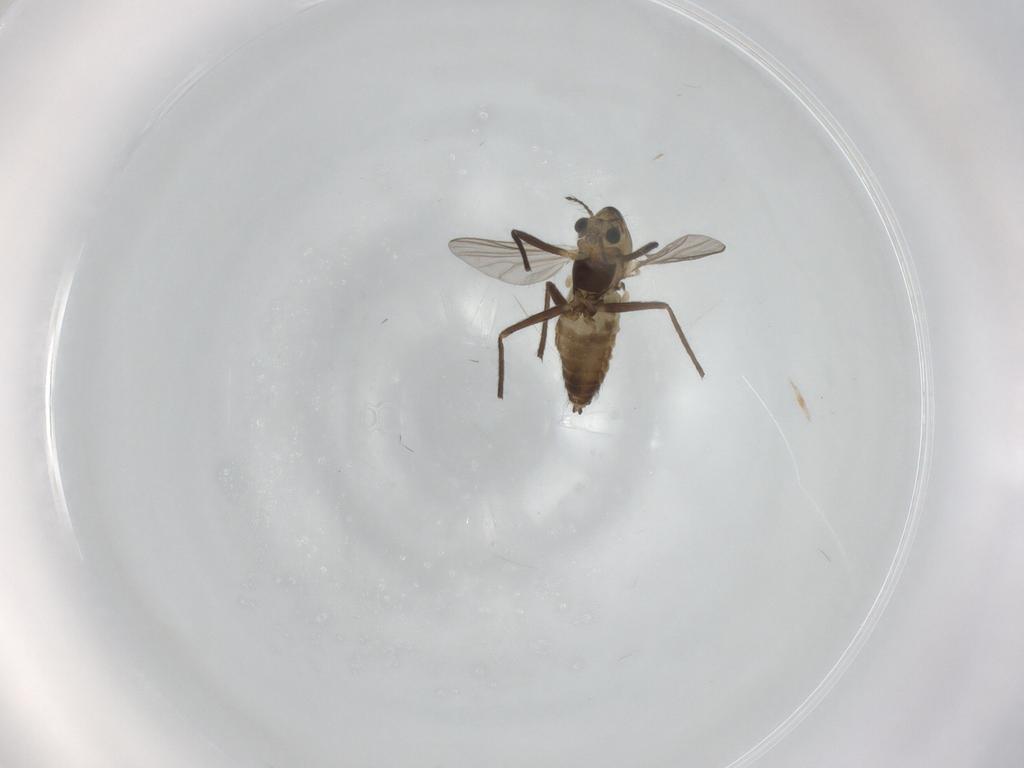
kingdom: Animalia
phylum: Arthropoda
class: Insecta
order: Diptera
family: Chironomidae
